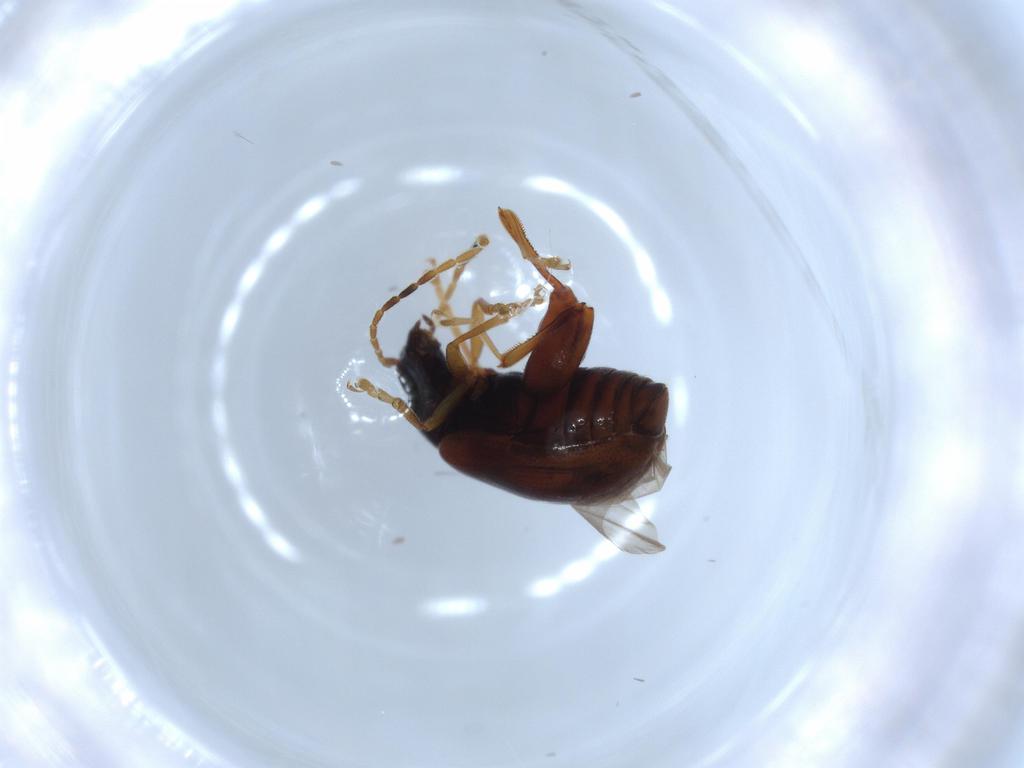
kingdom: Animalia
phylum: Arthropoda
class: Insecta
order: Coleoptera
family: Chrysomelidae
